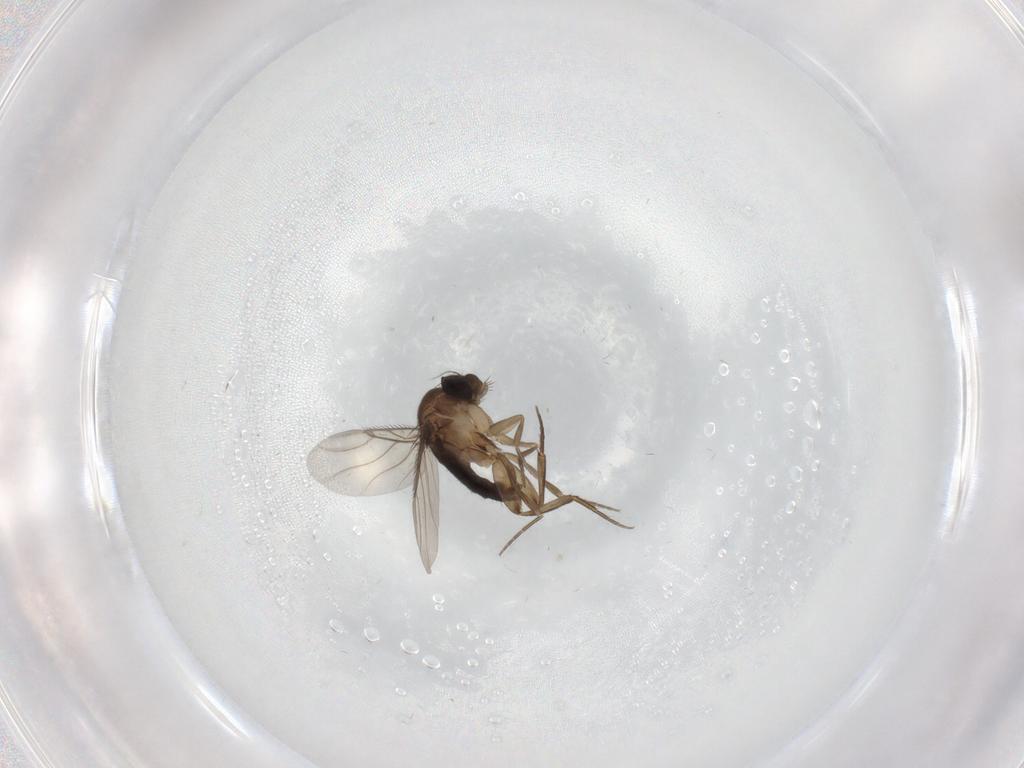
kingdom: Animalia
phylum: Arthropoda
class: Insecta
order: Diptera
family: Phoridae
